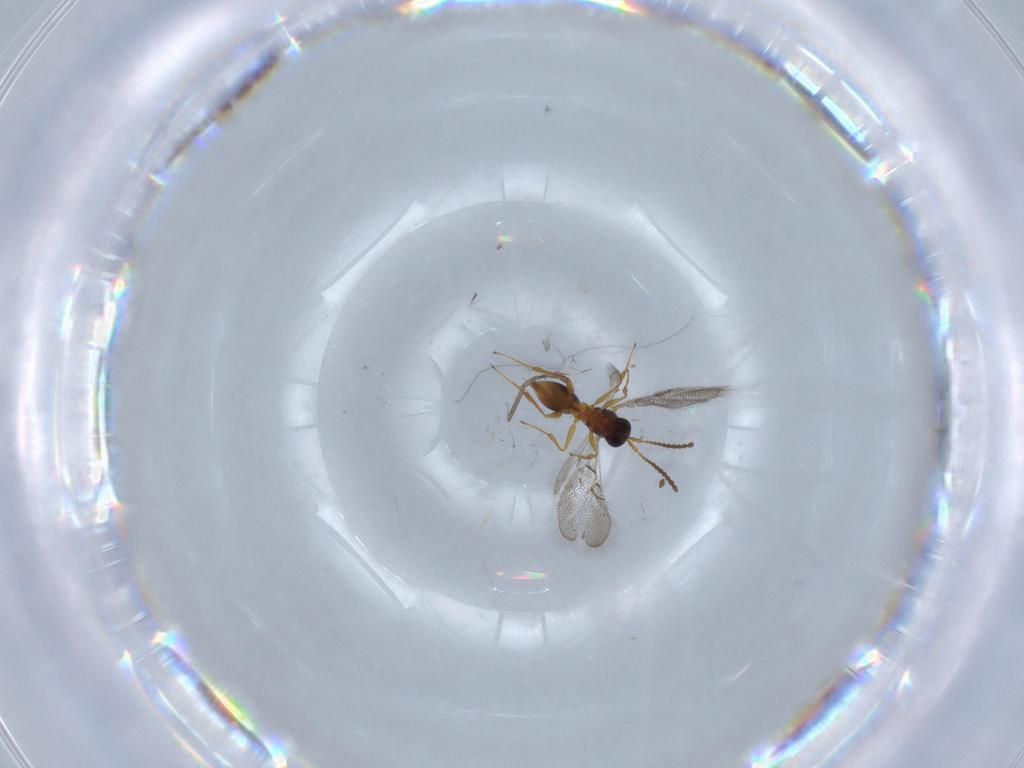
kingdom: Animalia
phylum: Arthropoda
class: Insecta
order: Hymenoptera
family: Figitidae
